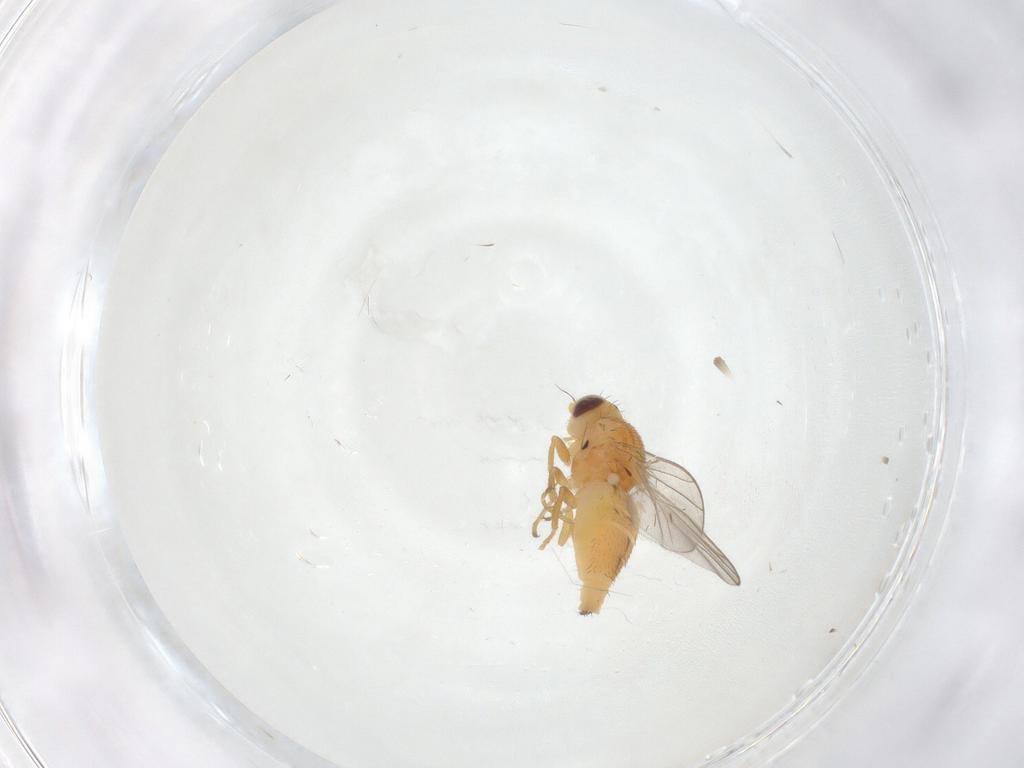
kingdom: Animalia
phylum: Arthropoda
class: Insecta
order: Diptera
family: Chloropidae
